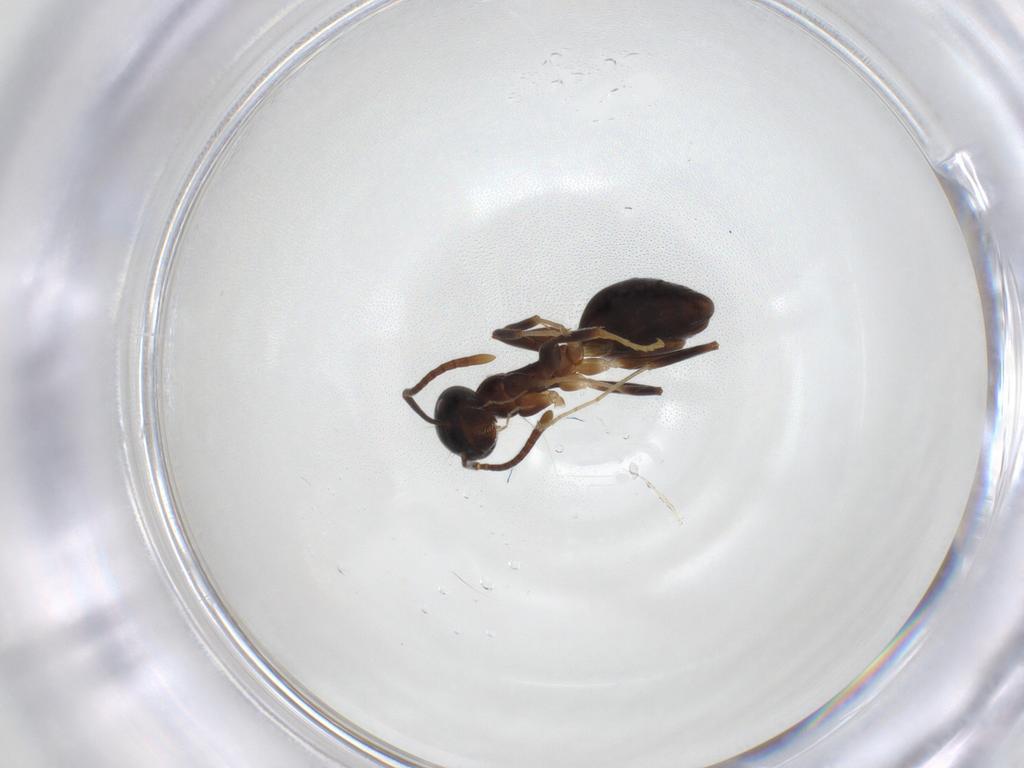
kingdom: Animalia
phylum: Arthropoda
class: Insecta
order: Hymenoptera
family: Formicidae
